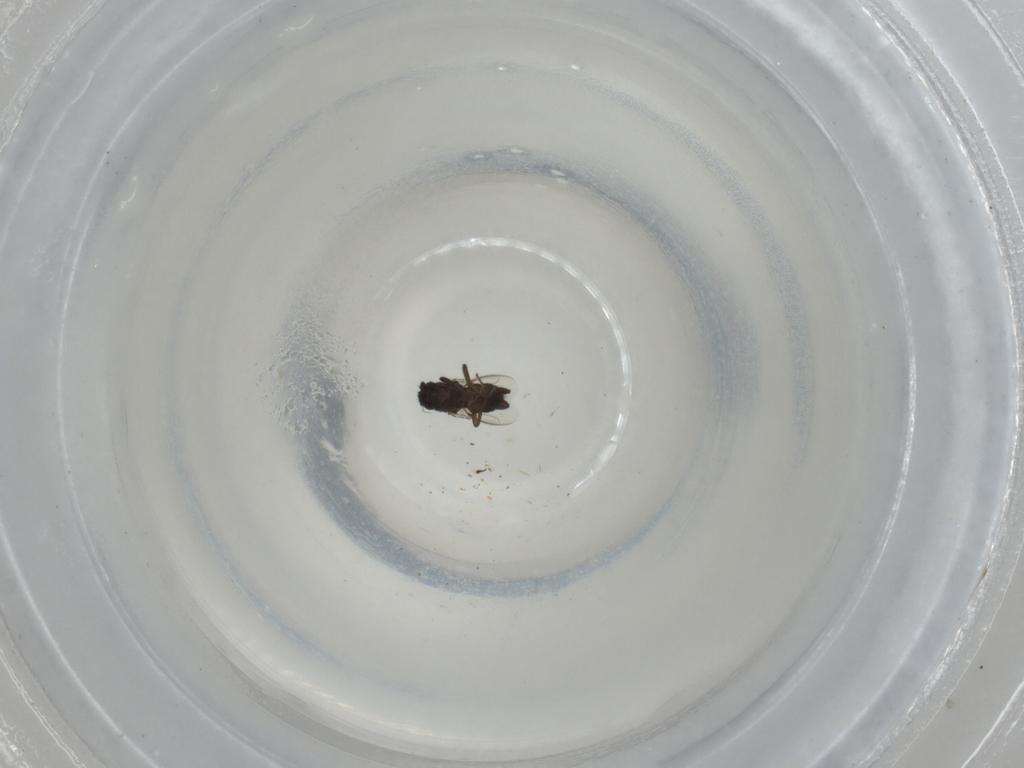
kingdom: Animalia
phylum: Arthropoda
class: Insecta
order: Diptera
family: Sphaeroceridae
